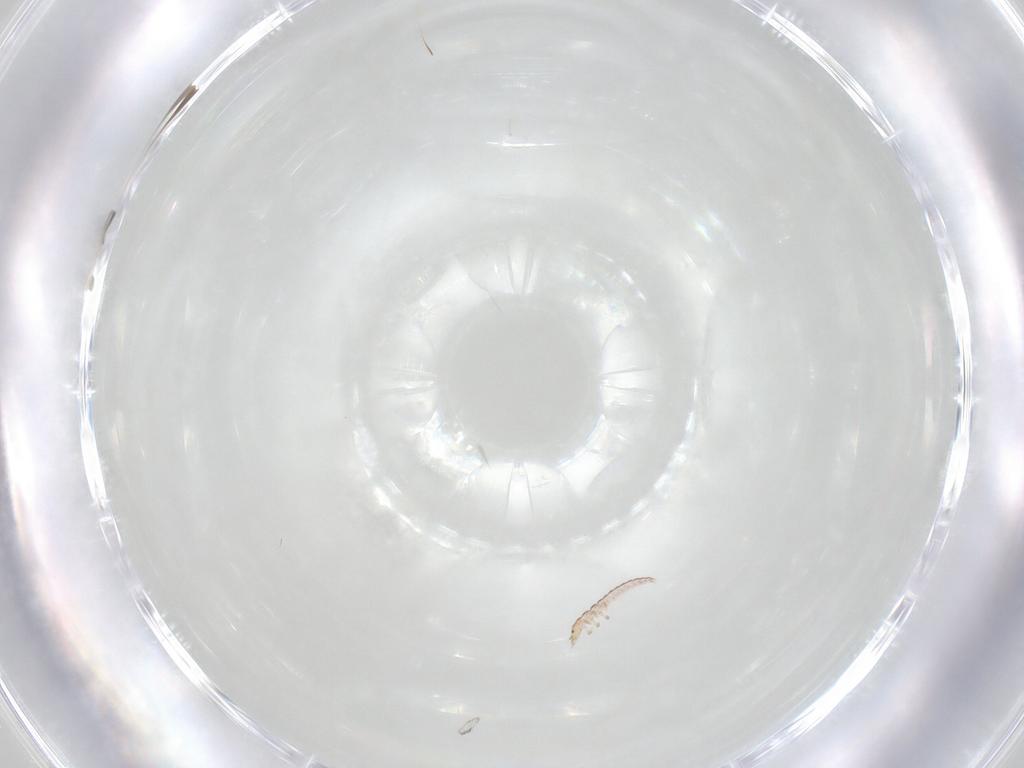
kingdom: Animalia
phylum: Arthropoda
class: Insecta
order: Neuroptera
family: Mantispidae
